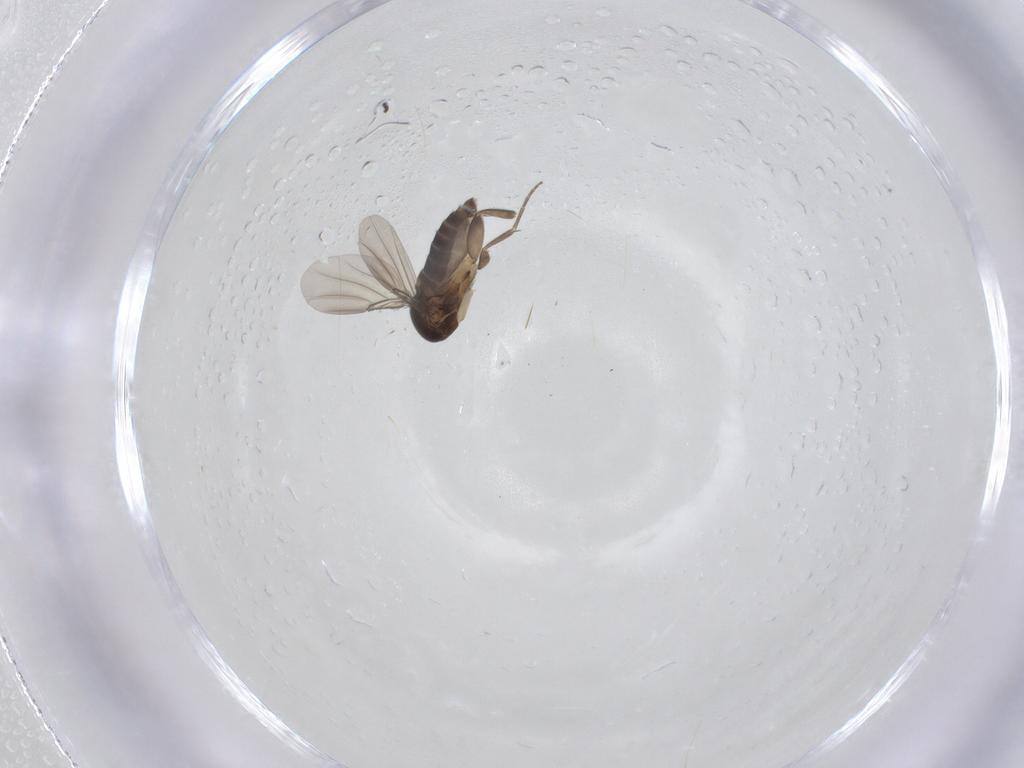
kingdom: Animalia
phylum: Arthropoda
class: Insecta
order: Diptera
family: Phoridae
